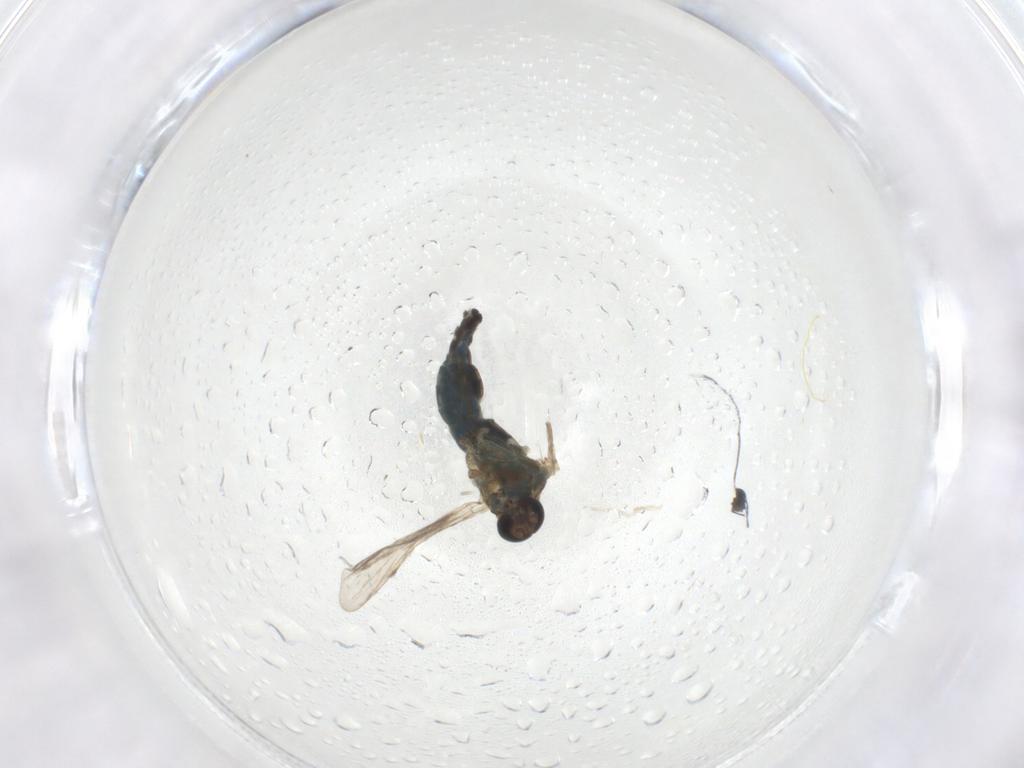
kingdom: Animalia
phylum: Arthropoda
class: Insecta
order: Diptera
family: Ceratopogonidae
